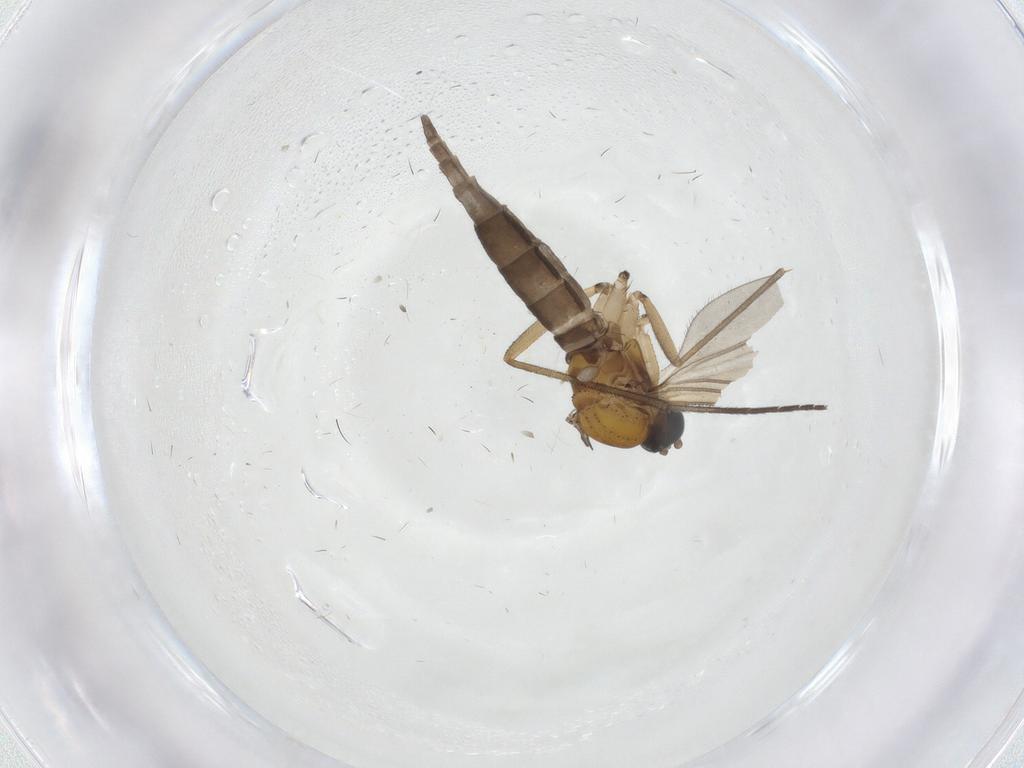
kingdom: Animalia
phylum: Arthropoda
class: Insecta
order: Diptera
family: Sciaridae
